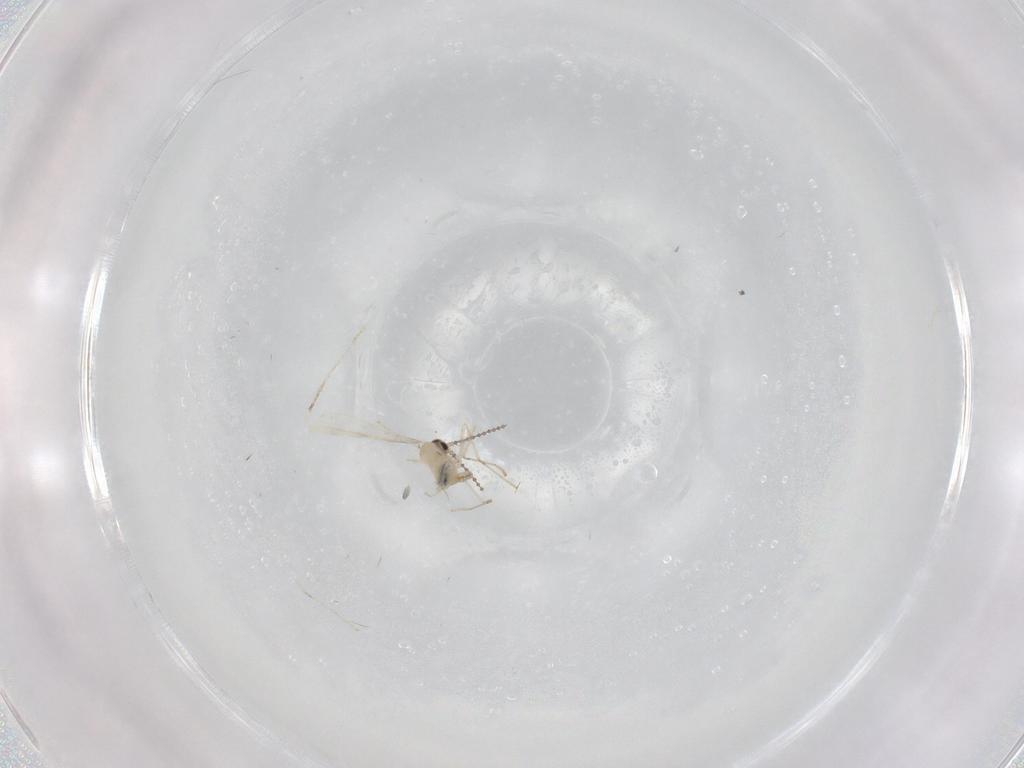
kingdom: Animalia
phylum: Arthropoda
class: Insecta
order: Diptera
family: Cecidomyiidae
